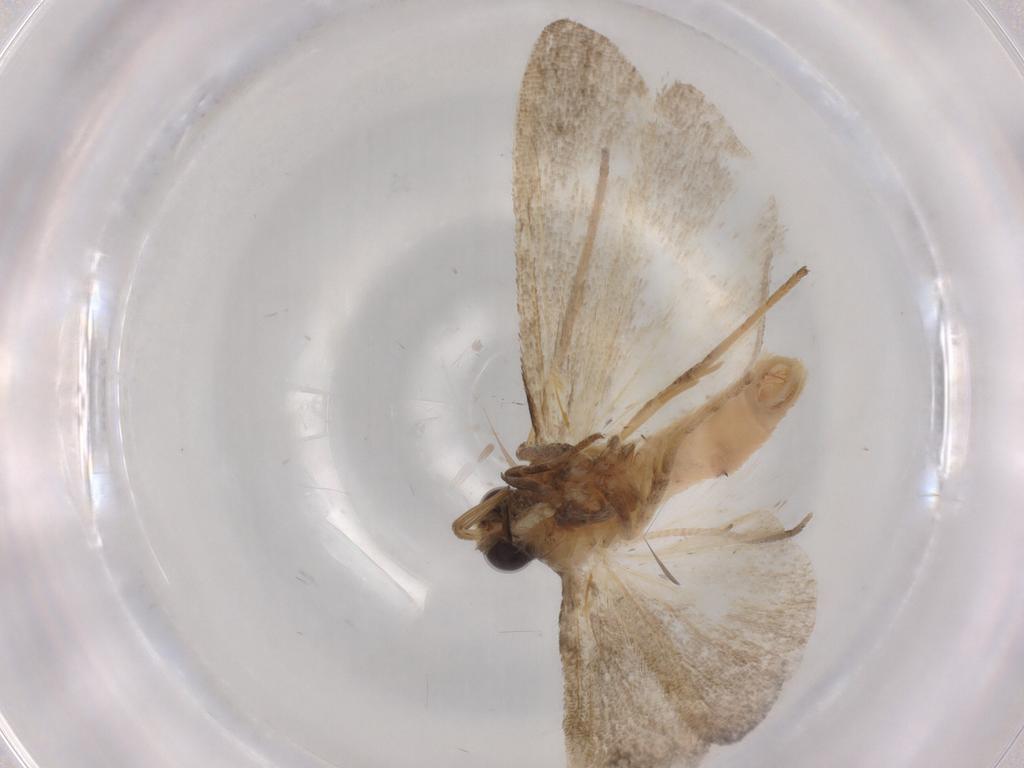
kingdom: Animalia
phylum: Arthropoda
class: Insecta
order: Lepidoptera
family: Noctuidae
